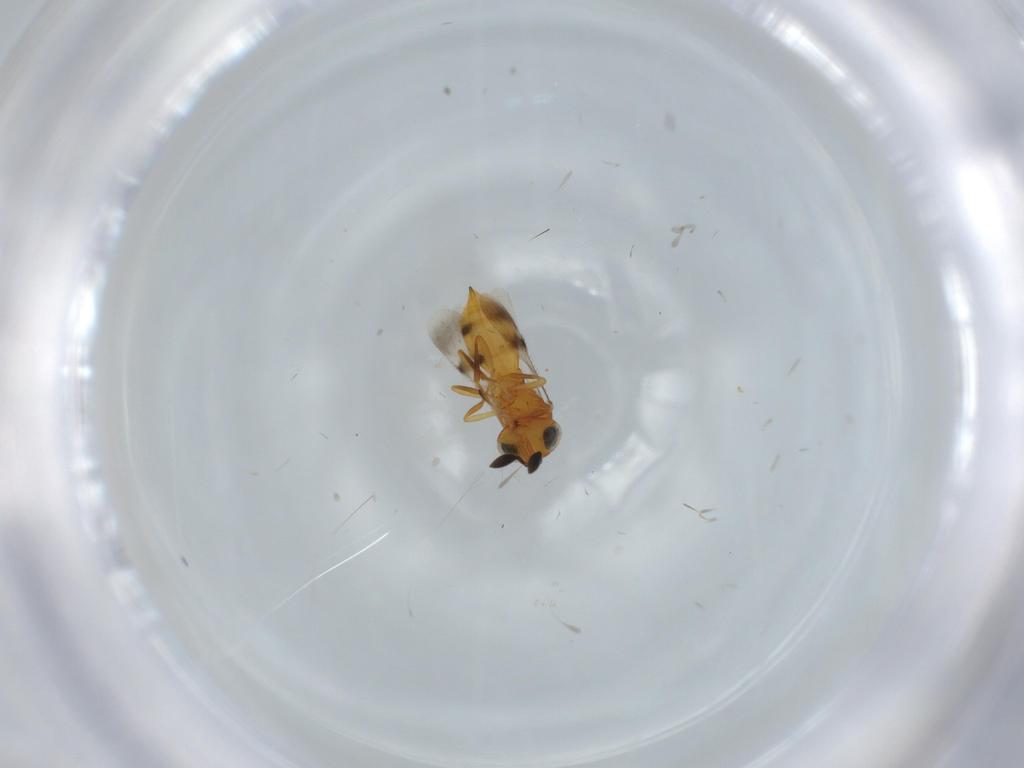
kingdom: Animalia
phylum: Arthropoda
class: Insecta
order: Hymenoptera
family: Scelionidae
